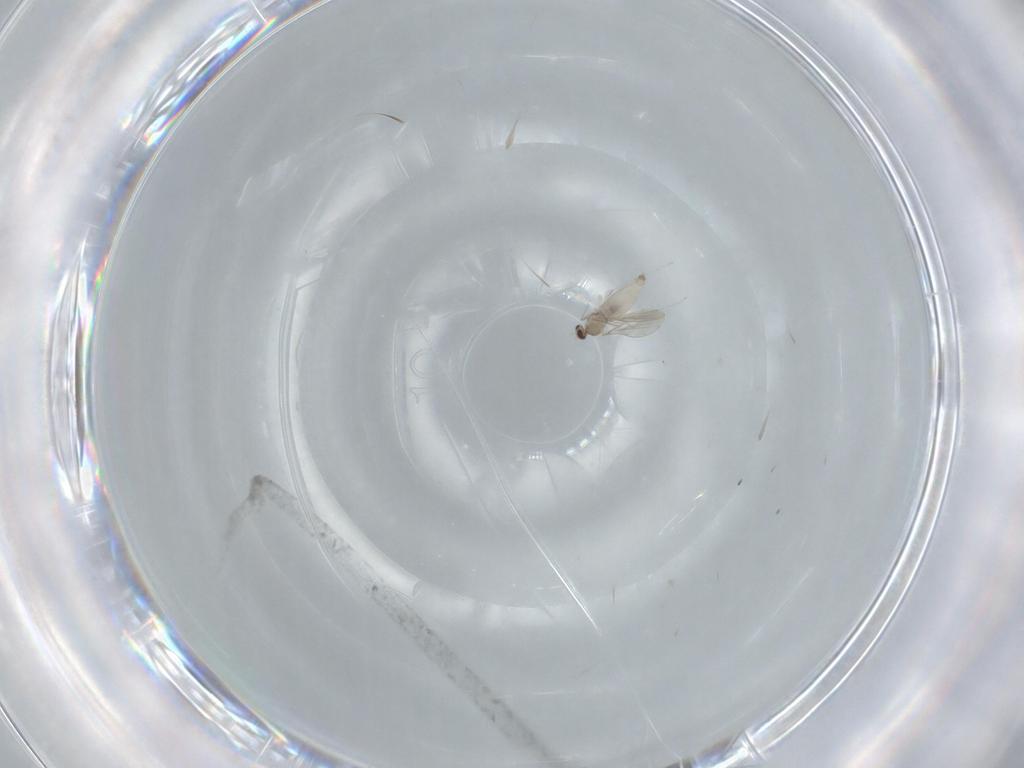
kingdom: Animalia
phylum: Arthropoda
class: Insecta
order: Diptera
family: Cecidomyiidae
